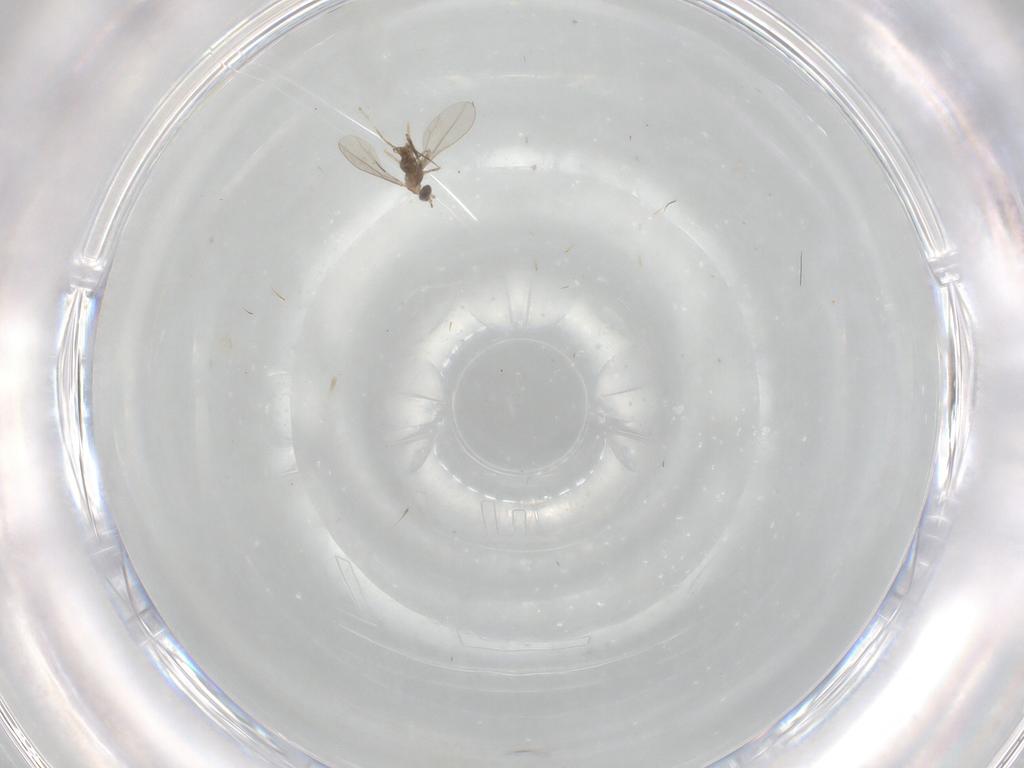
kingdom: Animalia
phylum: Arthropoda
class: Insecta
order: Diptera
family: Cecidomyiidae
